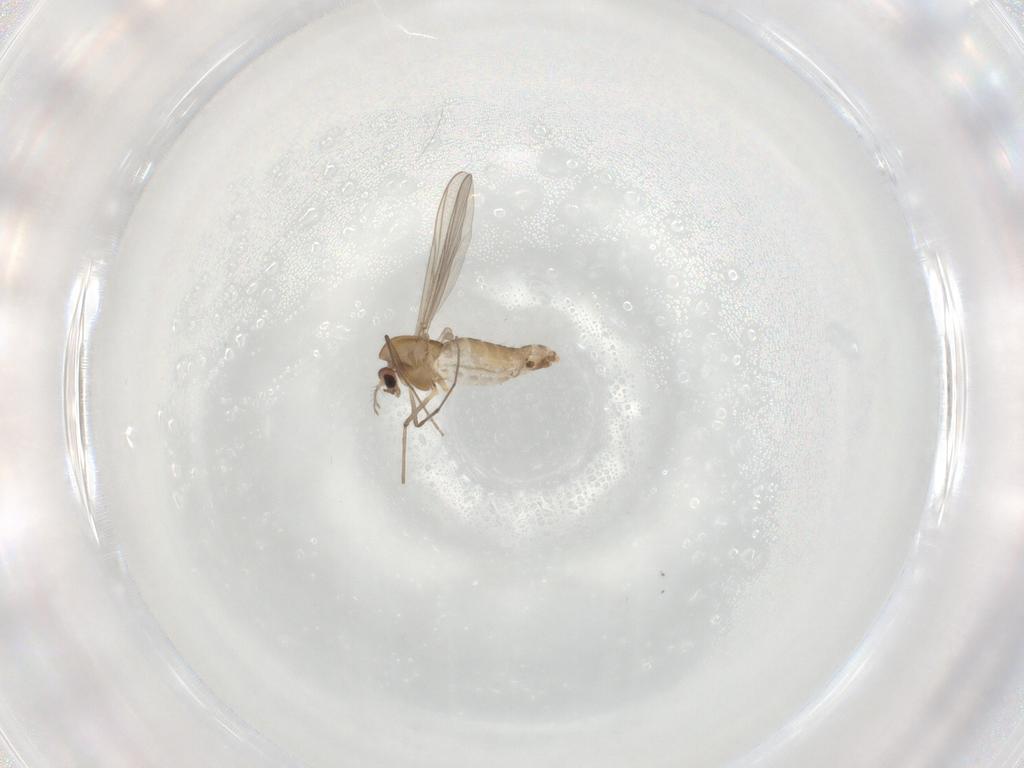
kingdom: Animalia
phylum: Arthropoda
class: Insecta
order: Diptera
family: Chironomidae
